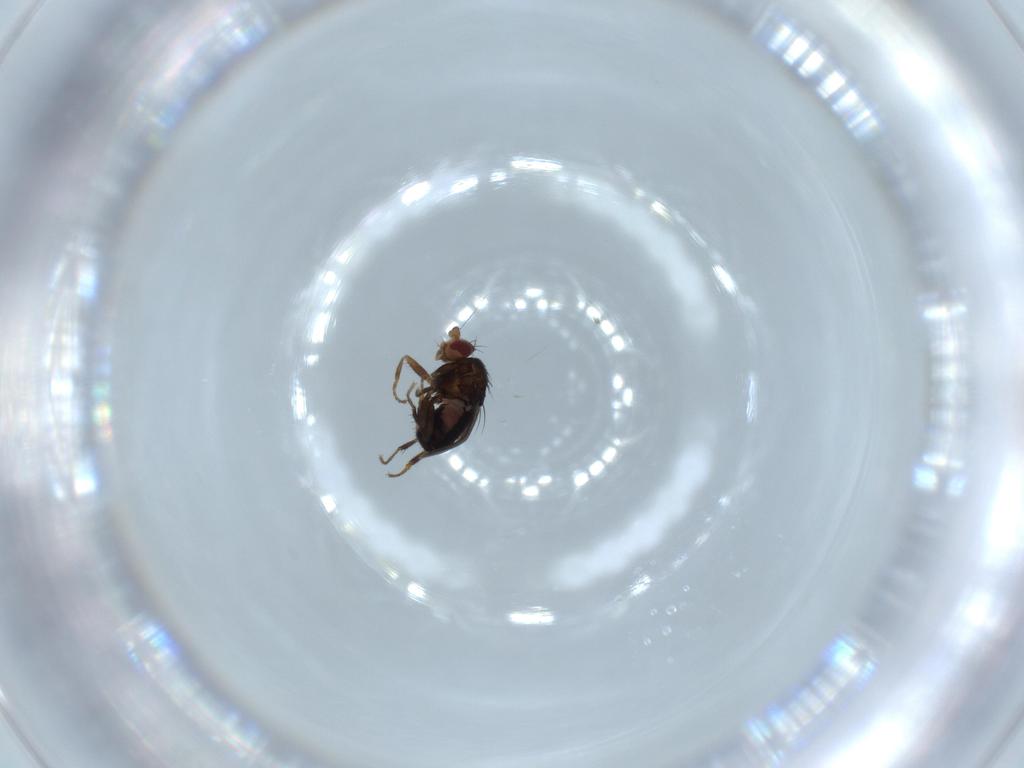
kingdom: Animalia
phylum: Arthropoda
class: Insecta
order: Diptera
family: Sphaeroceridae
